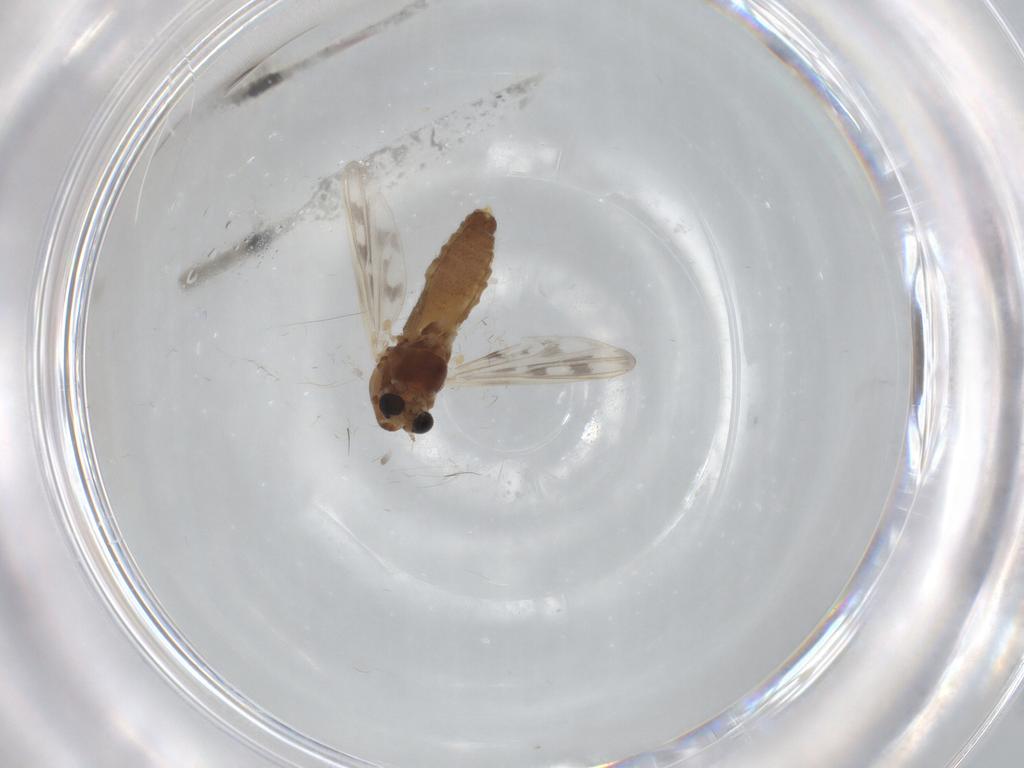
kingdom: Animalia
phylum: Arthropoda
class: Insecta
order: Diptera
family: Chironomidae
